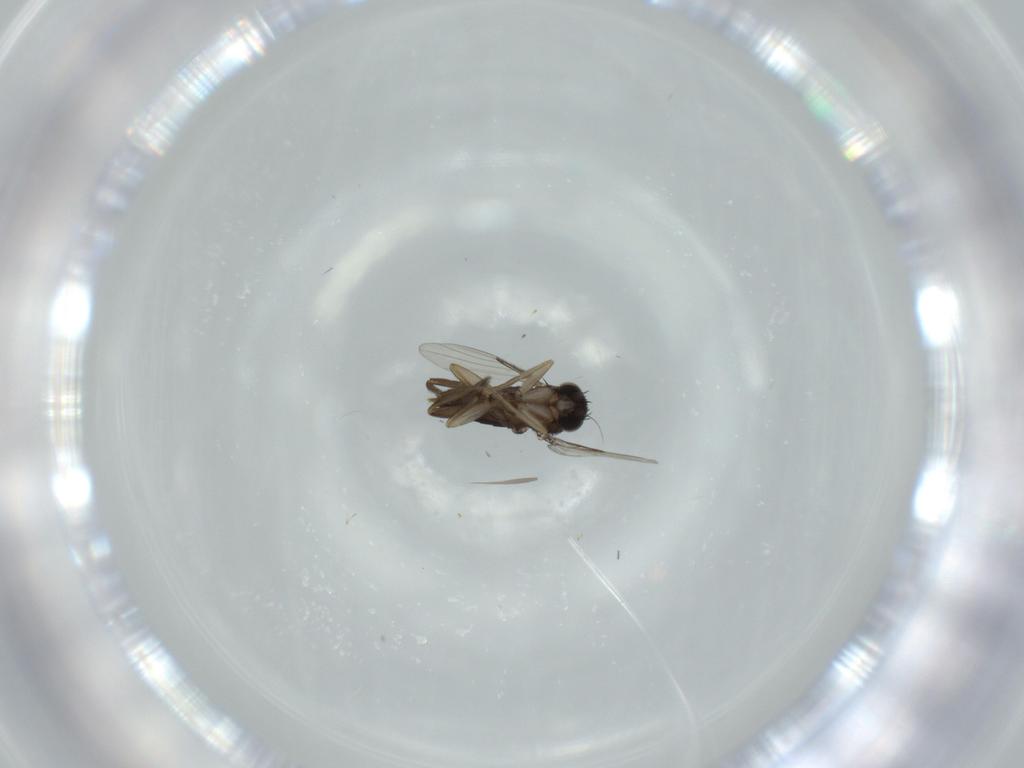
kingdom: Animalia
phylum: Arthropoda
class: Insecta
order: Diptera
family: Phoridae
